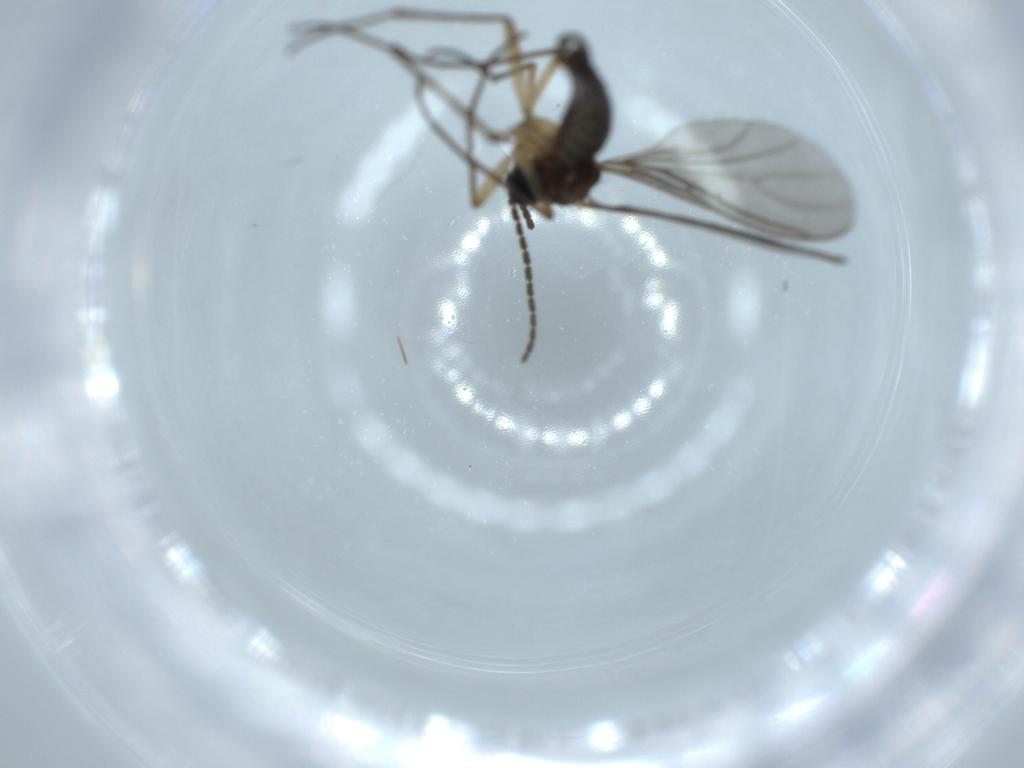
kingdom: Animalia
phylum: Arthropoda
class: Insecta
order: Diptera
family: Sciaridae
